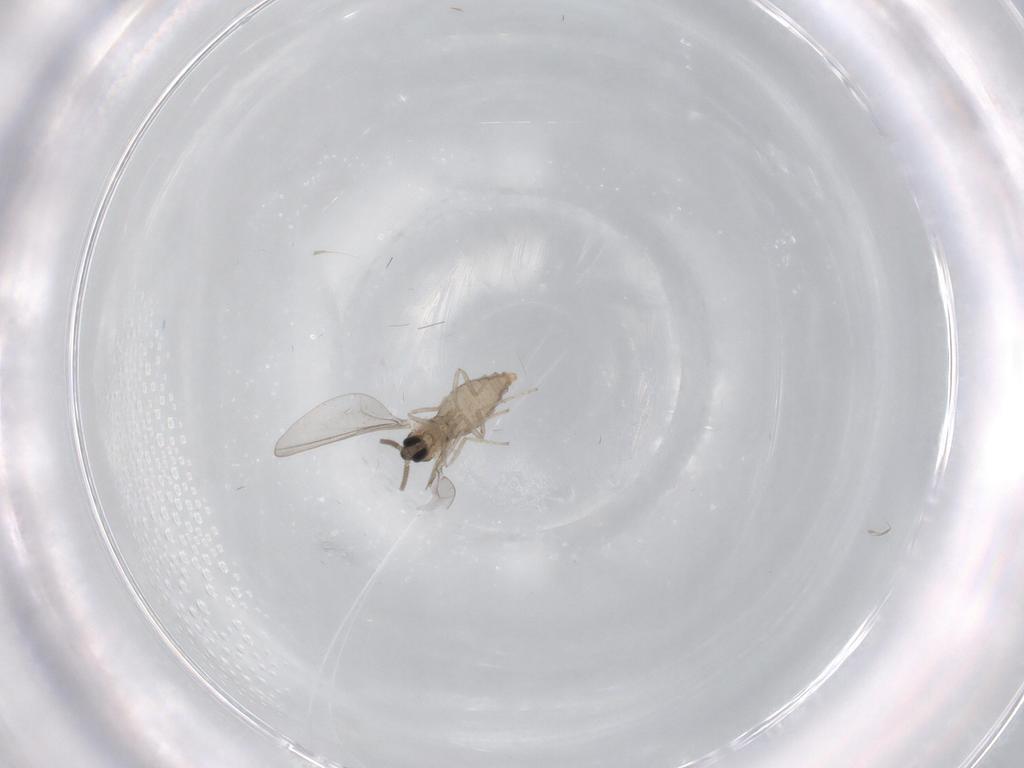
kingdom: Animalia
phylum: Arthropoda
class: Insecta
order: Diptera
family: Cecidomyiidae
